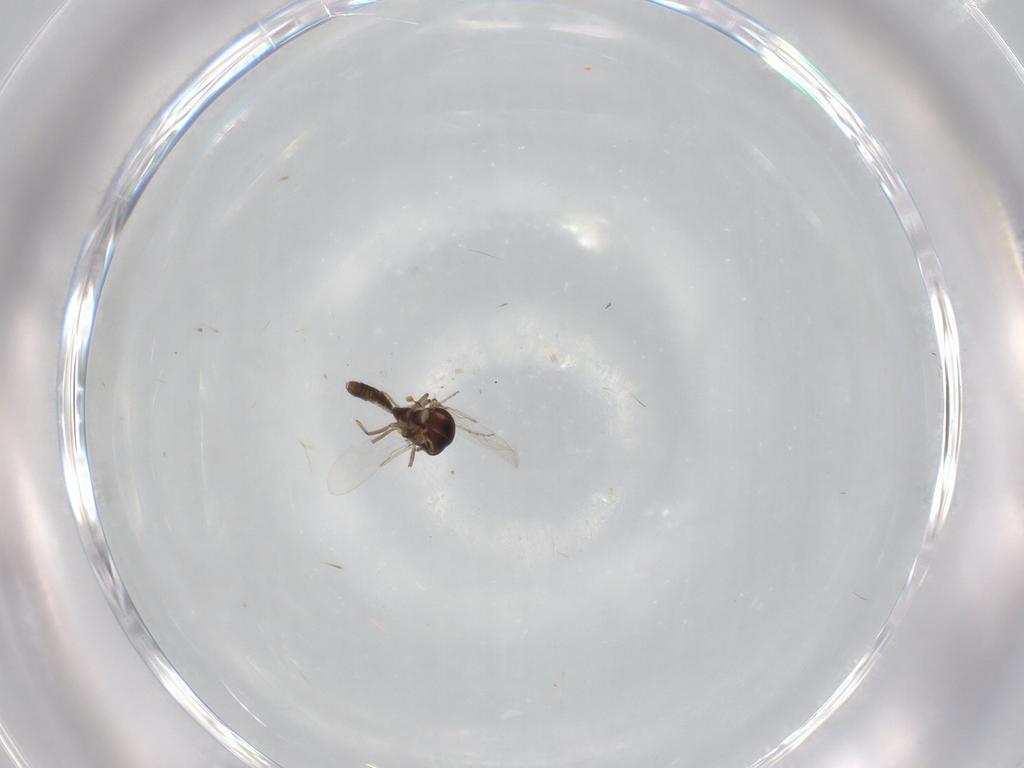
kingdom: Animalia
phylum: Arthropoda
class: Insecta
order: Diptera
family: Ceratopogonidae
